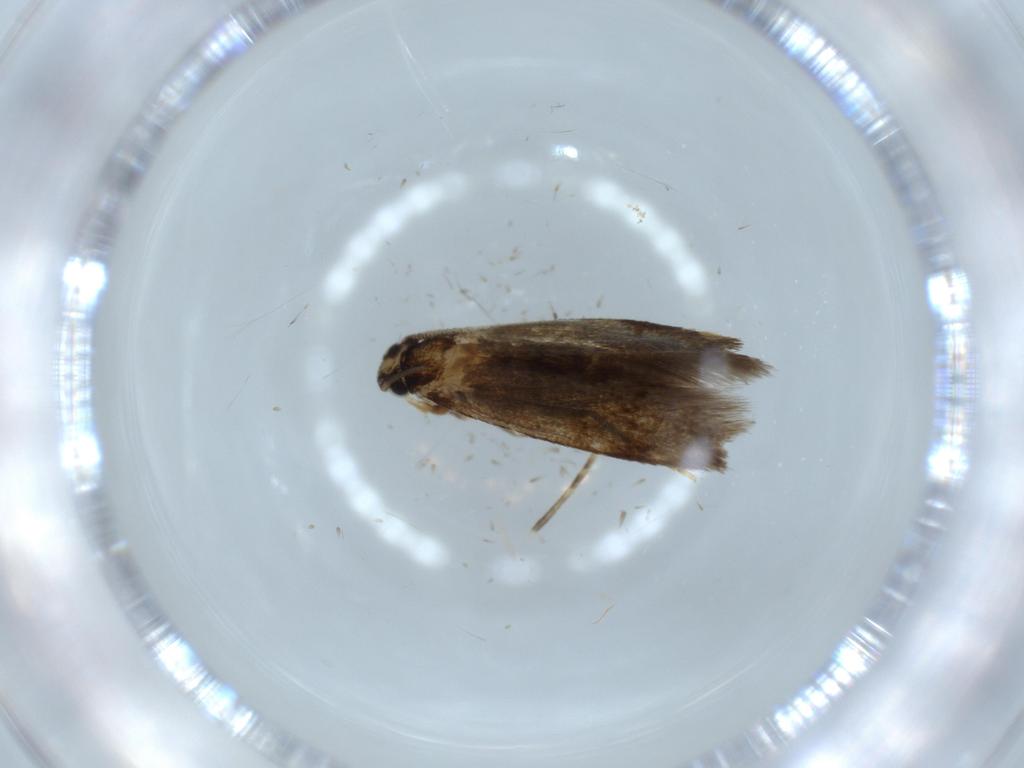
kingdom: Animalia
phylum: Arthropoda
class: Insecta
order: Lepidoptera
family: Tineidae
